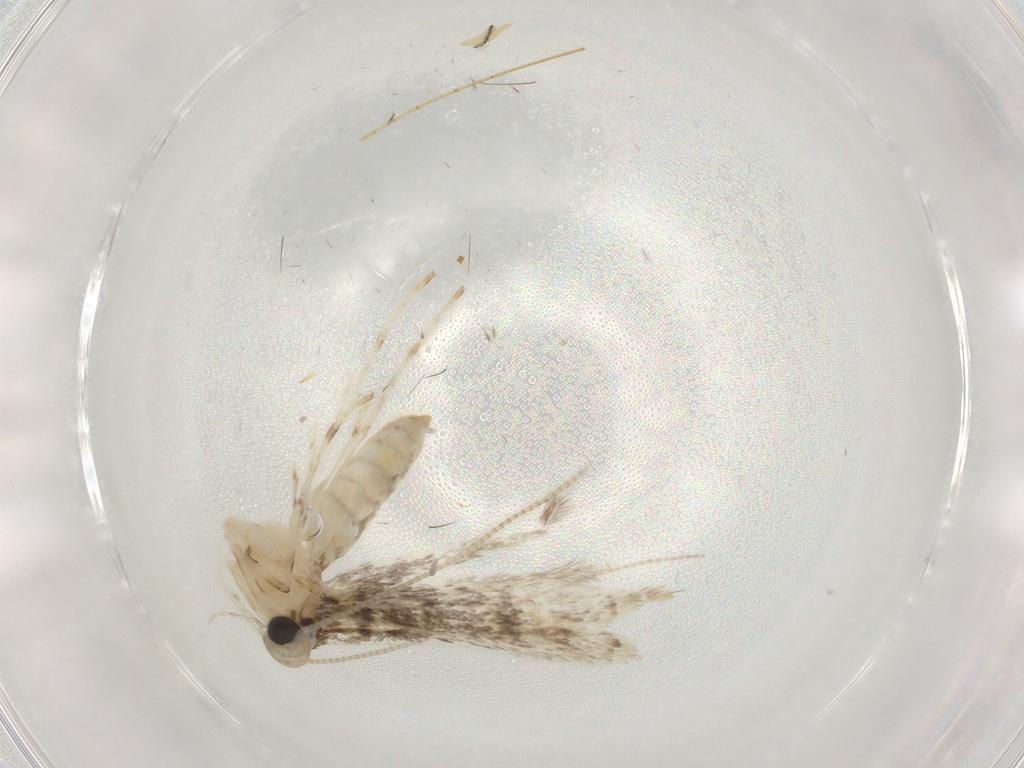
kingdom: Animalia
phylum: Arthropoda
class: Insecta
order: Lepidoptera
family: Gracillariidae
